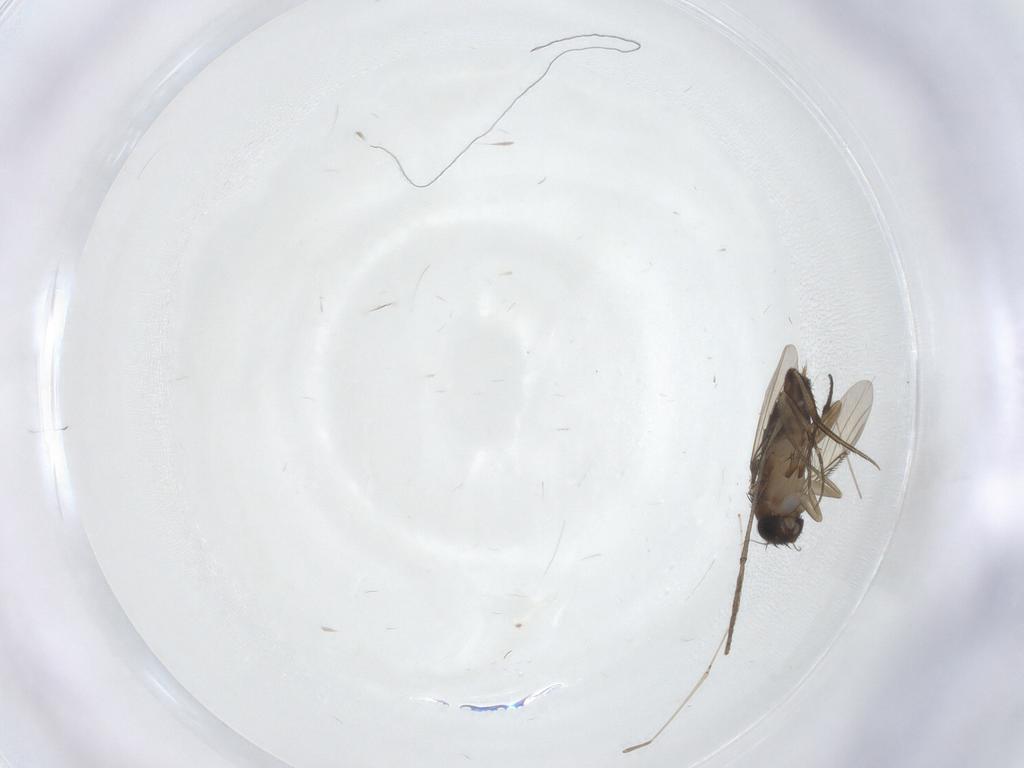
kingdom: Animalia
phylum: Arthropoda
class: Insecta
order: Diptera
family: Phoridae
